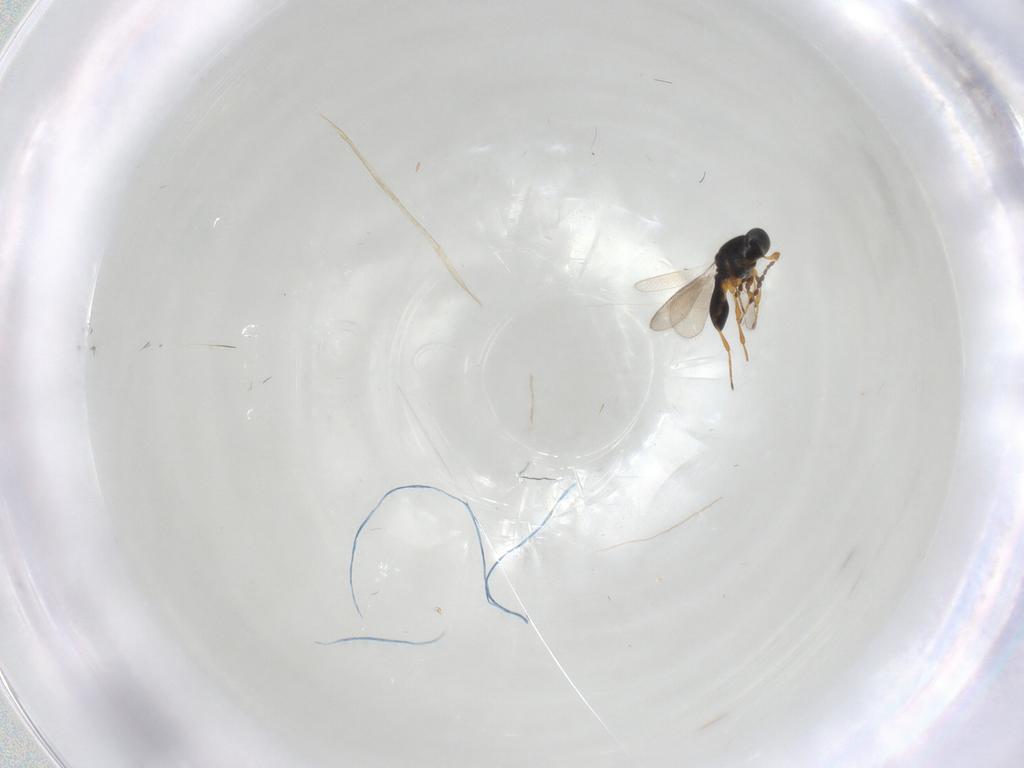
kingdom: Animalia
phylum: Arthropoda
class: Insecta
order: Hymenoptera
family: Platygastridae
